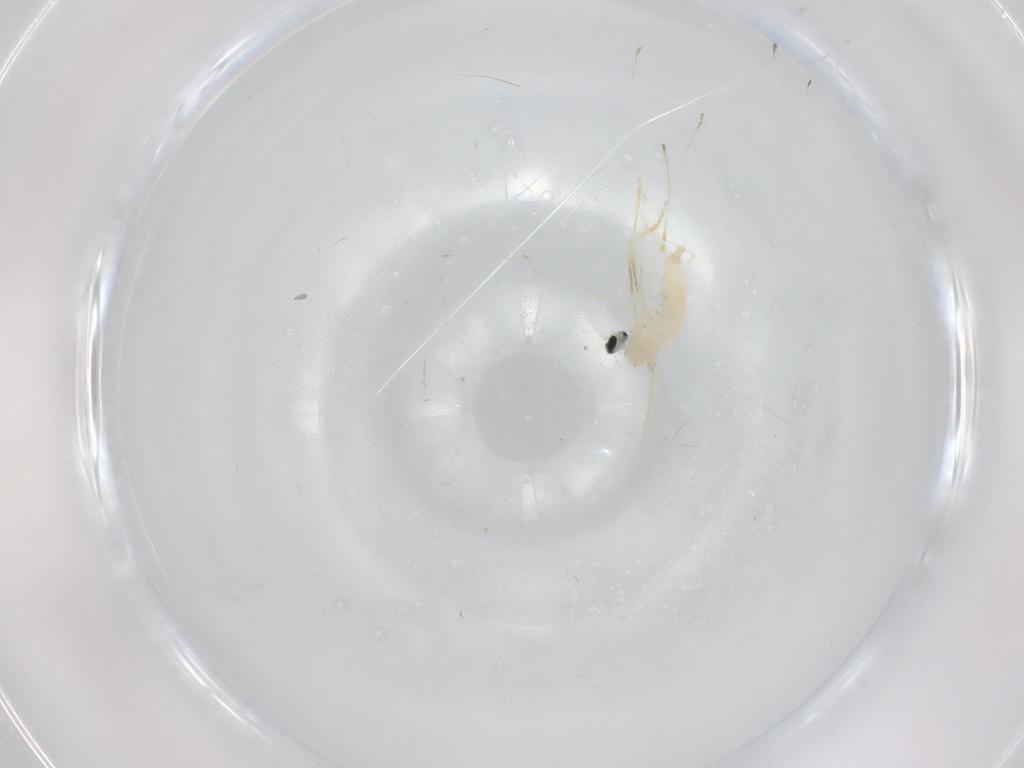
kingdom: Animalia
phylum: Arthropoda
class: Insecta
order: Diptera
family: Cecidomyiidae
